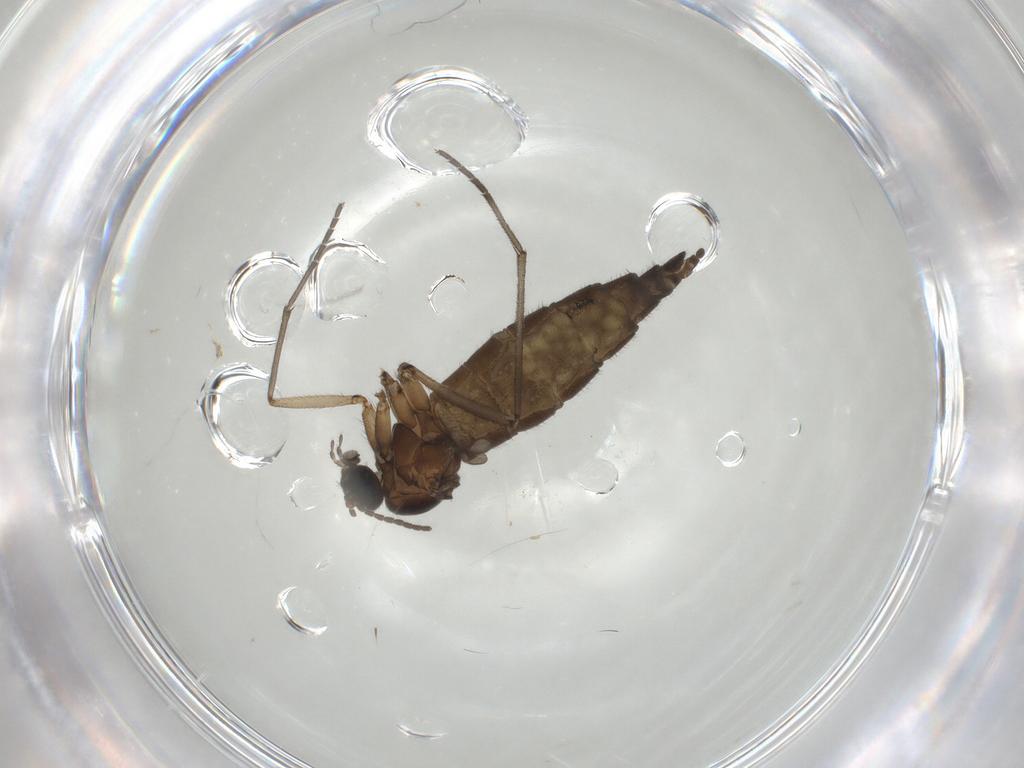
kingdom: Animalia
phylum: Arthropoda
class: Insecta
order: Diptera
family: Sciaridae
